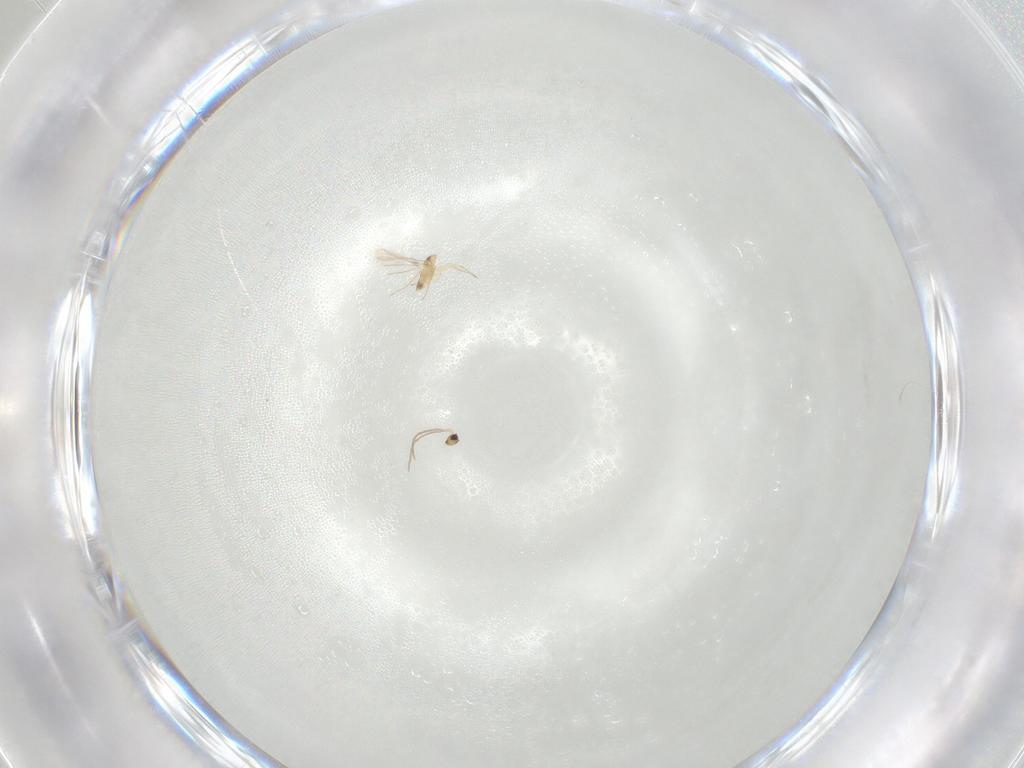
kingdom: Animalia
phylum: Arthropoda
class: Insecta
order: Hymenoptera
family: Mymaridae
